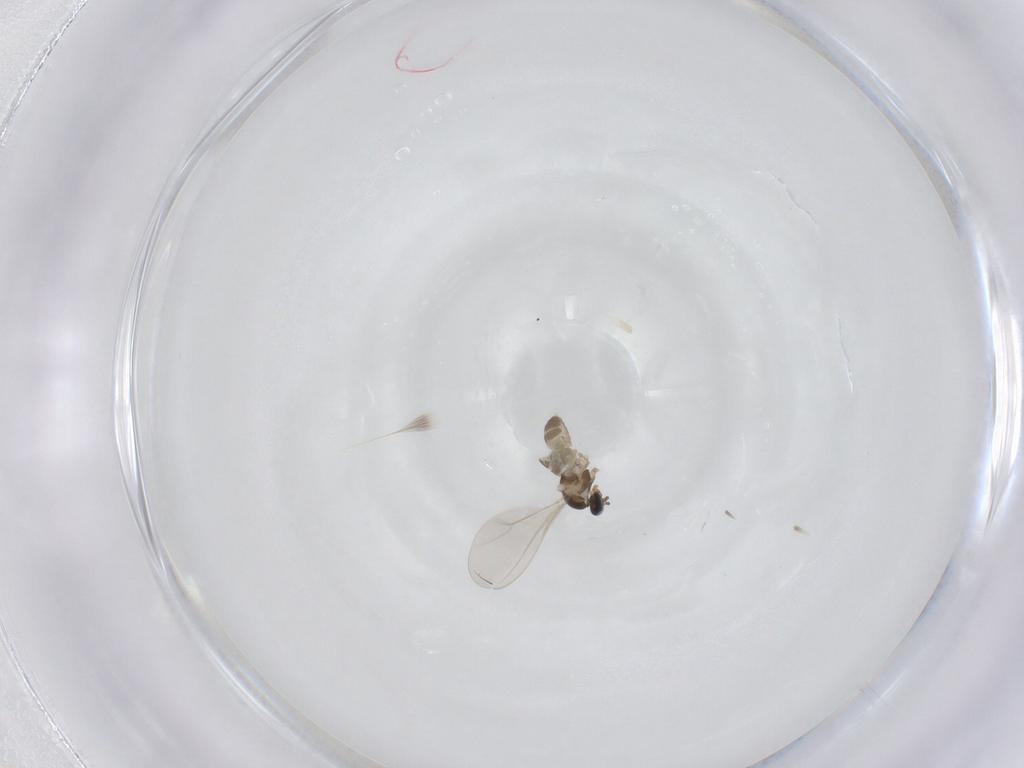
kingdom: Animalia
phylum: Arthropoda
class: Insecta
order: Diptera
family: Cecidomyiidae
